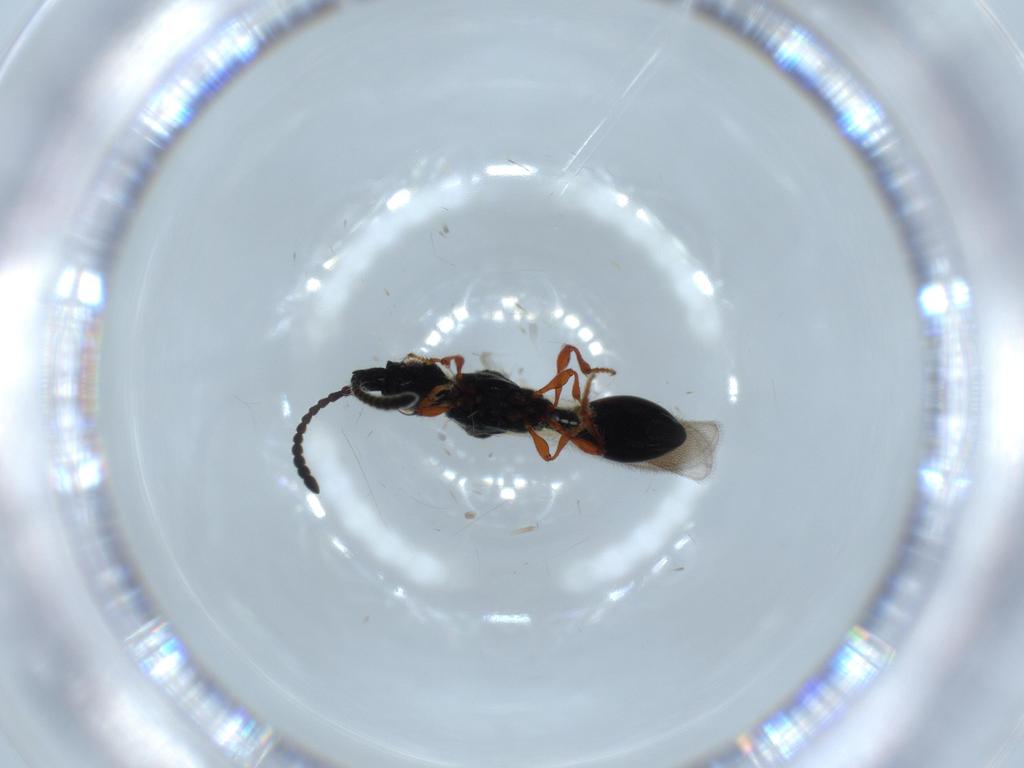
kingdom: Animalia
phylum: Arthropoda
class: Insecta
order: Hymenoptera
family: Diapriidae
